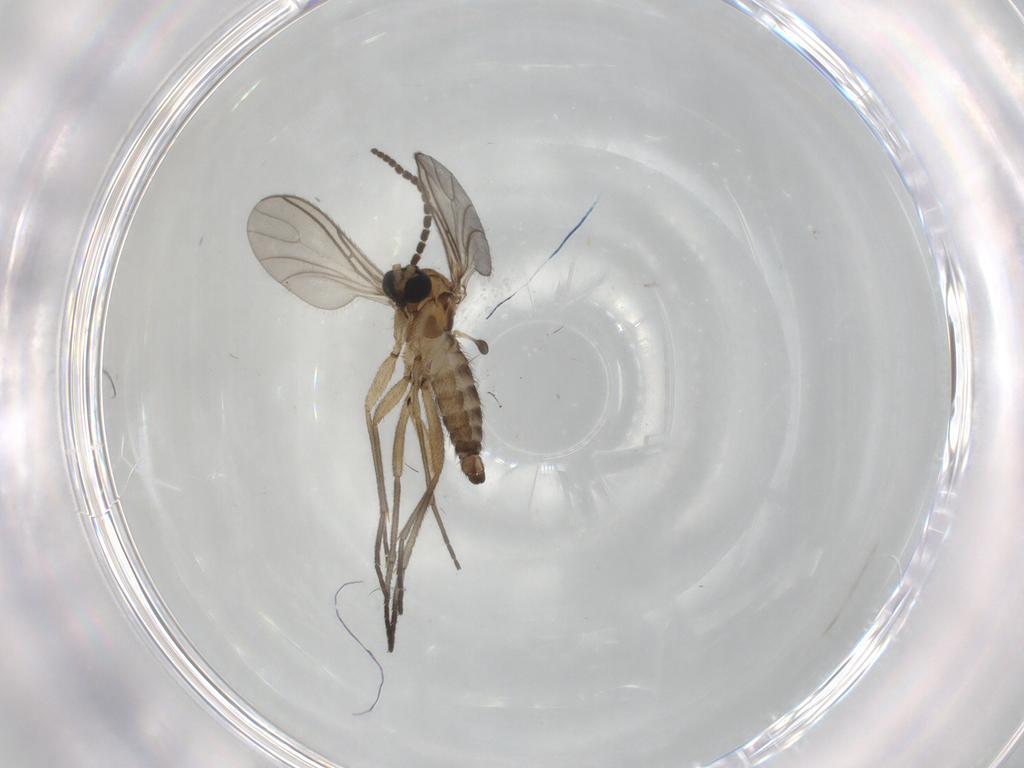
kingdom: Animalia
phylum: Arthropoda
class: Insecta
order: Diptera
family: Sciaridae
